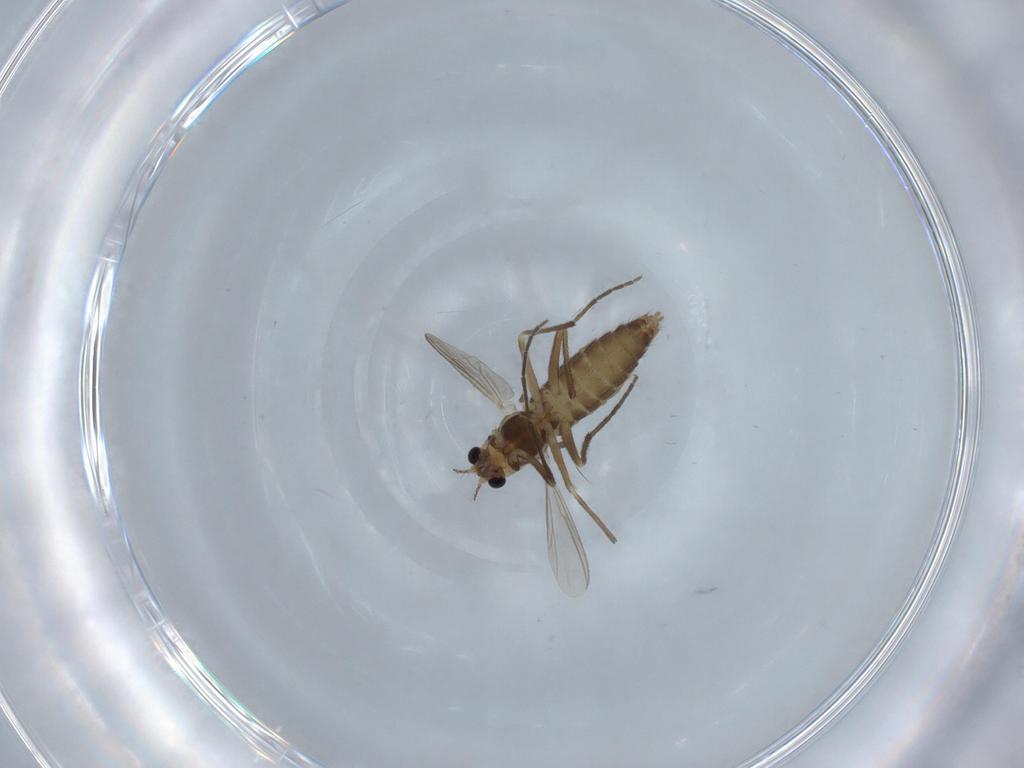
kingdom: Animalia
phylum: Arthropoda
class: Insecta
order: Diptera
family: Chironomidae
